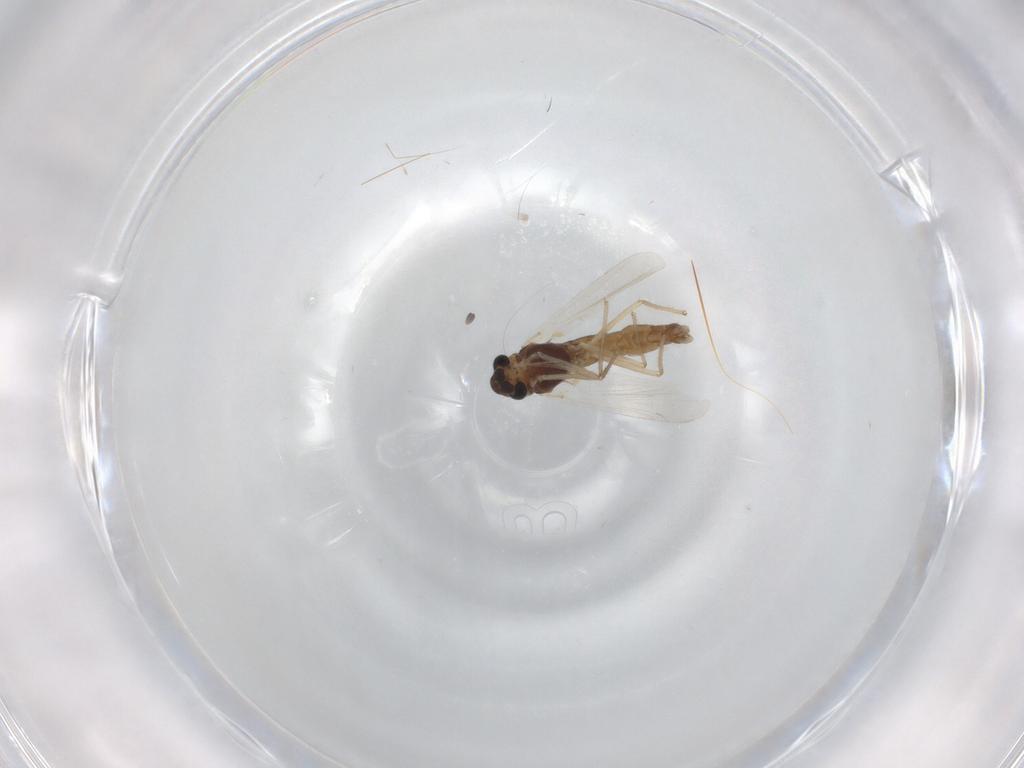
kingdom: Animalia
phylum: Arthropoda
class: Insecta
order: Diptera
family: Chironomidae
